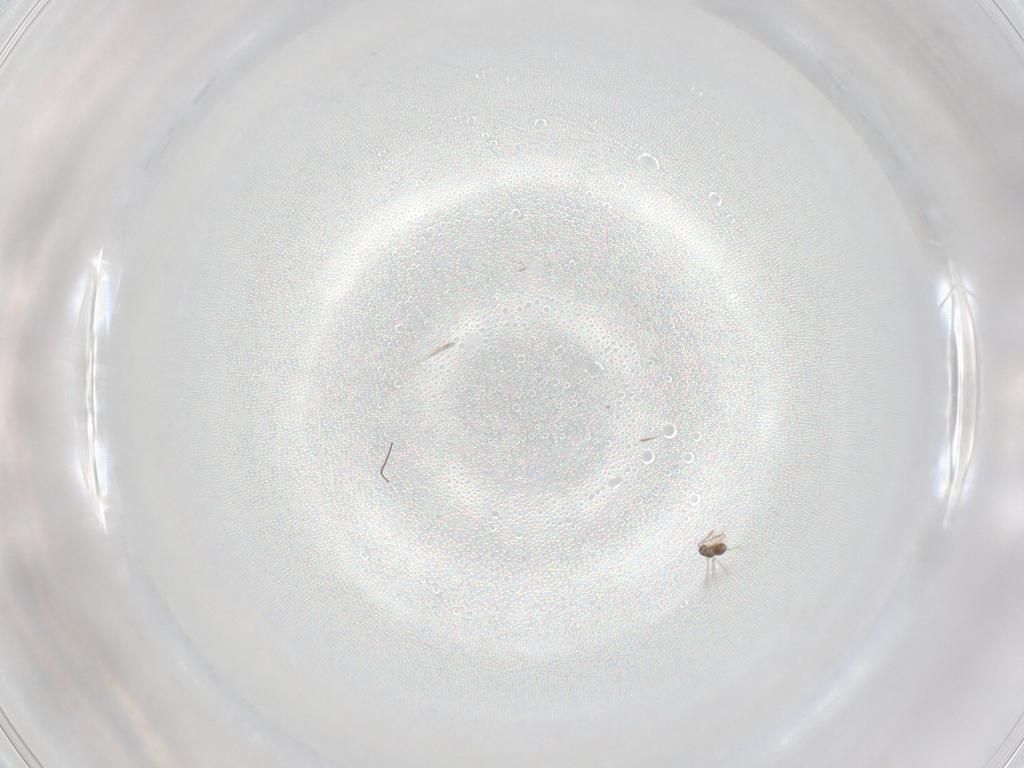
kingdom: Animalia
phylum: Arthropoda
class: Insecta
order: Hymenoptera
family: Mymaridae
